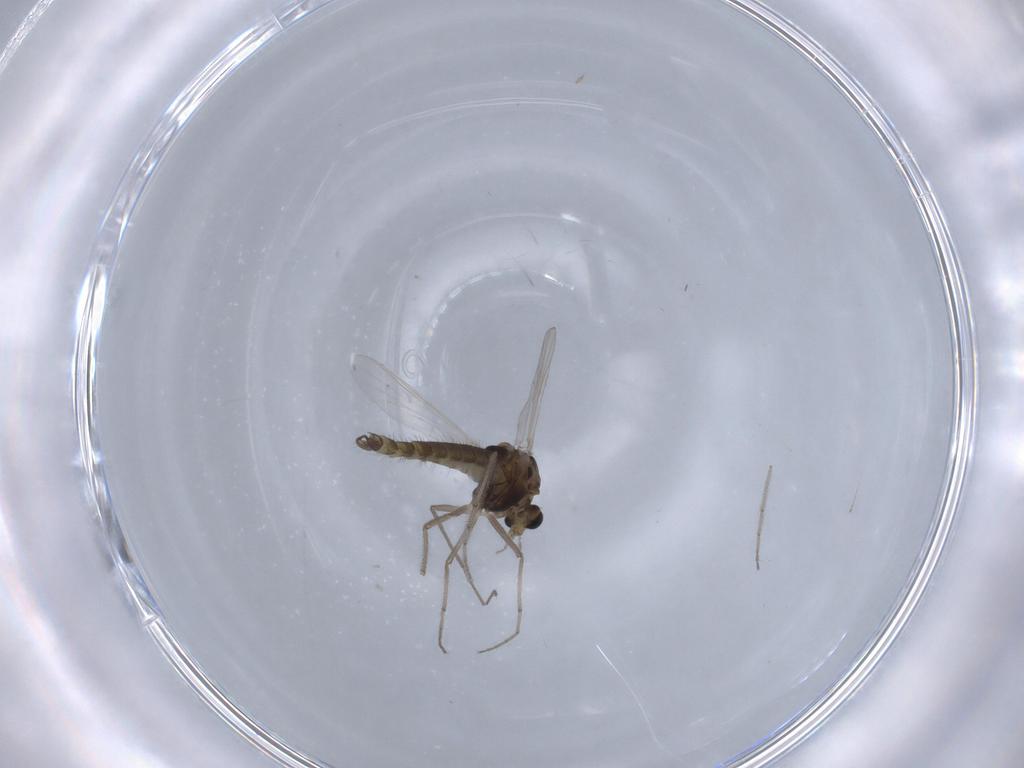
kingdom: Animalia
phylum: Arthropoda
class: Insecta
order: Diptera
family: Chironomidae
